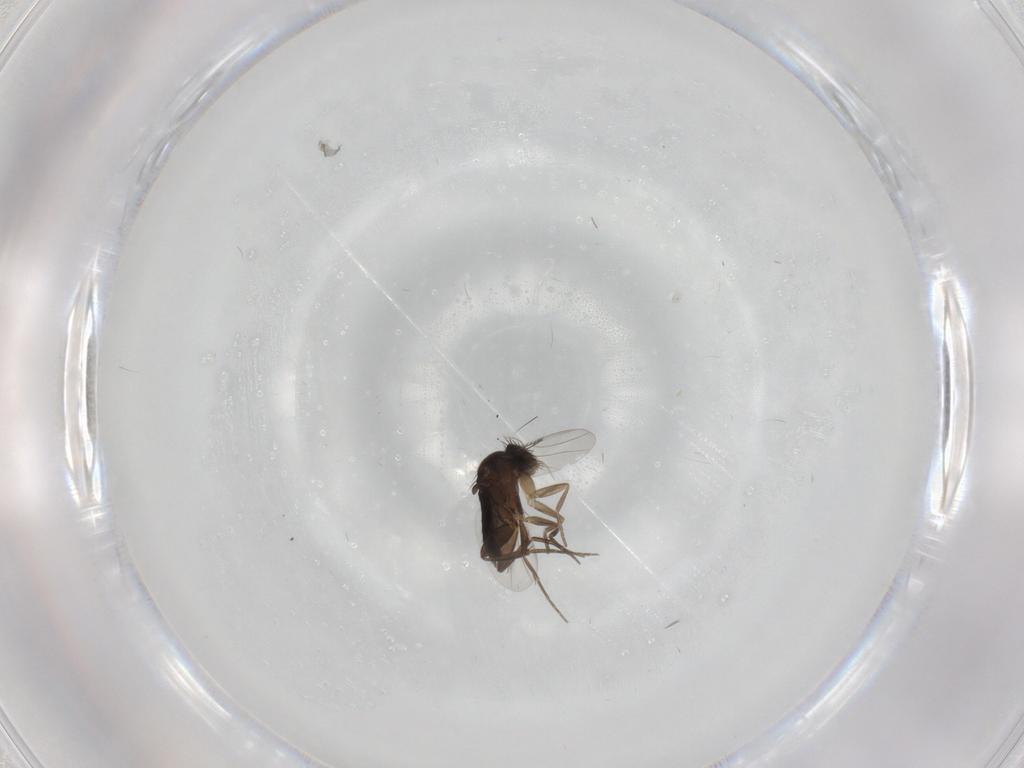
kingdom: Animalia
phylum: Arthropoda
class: Insecta
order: Diptera
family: Phoridae
